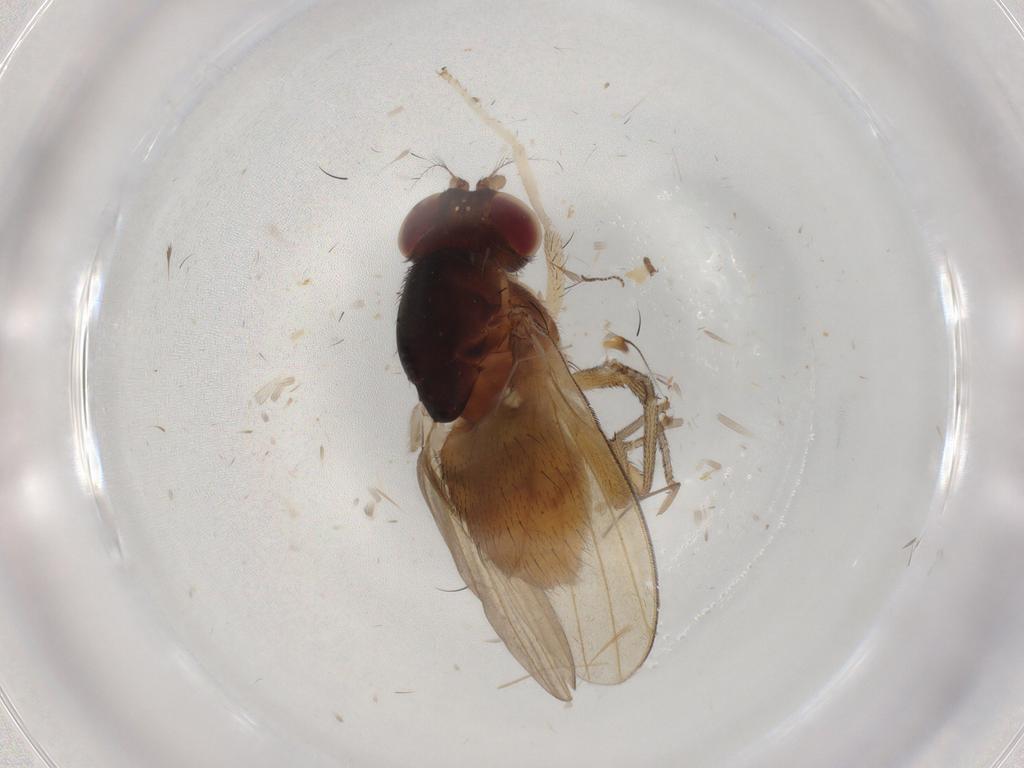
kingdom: Animalia
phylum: Arthropoda
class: Insecta
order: Diptera
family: Lauxaniidae
